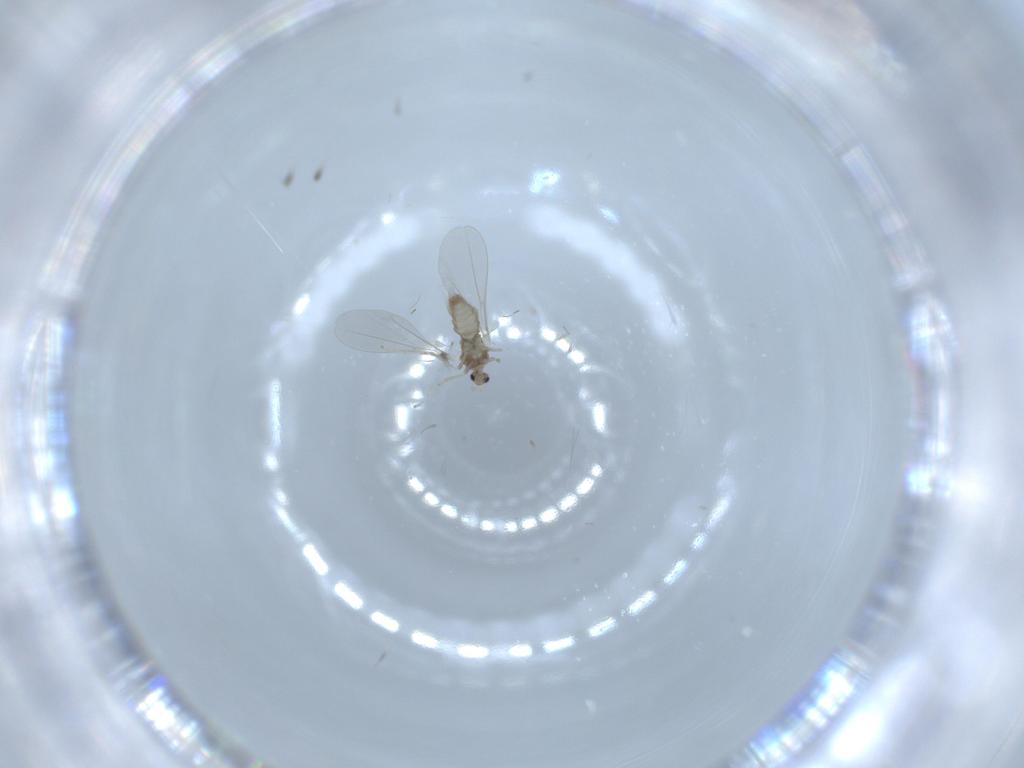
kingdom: Animalia
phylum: Arthropoda
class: Insecta
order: Diptera
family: Cecidomyiidae
